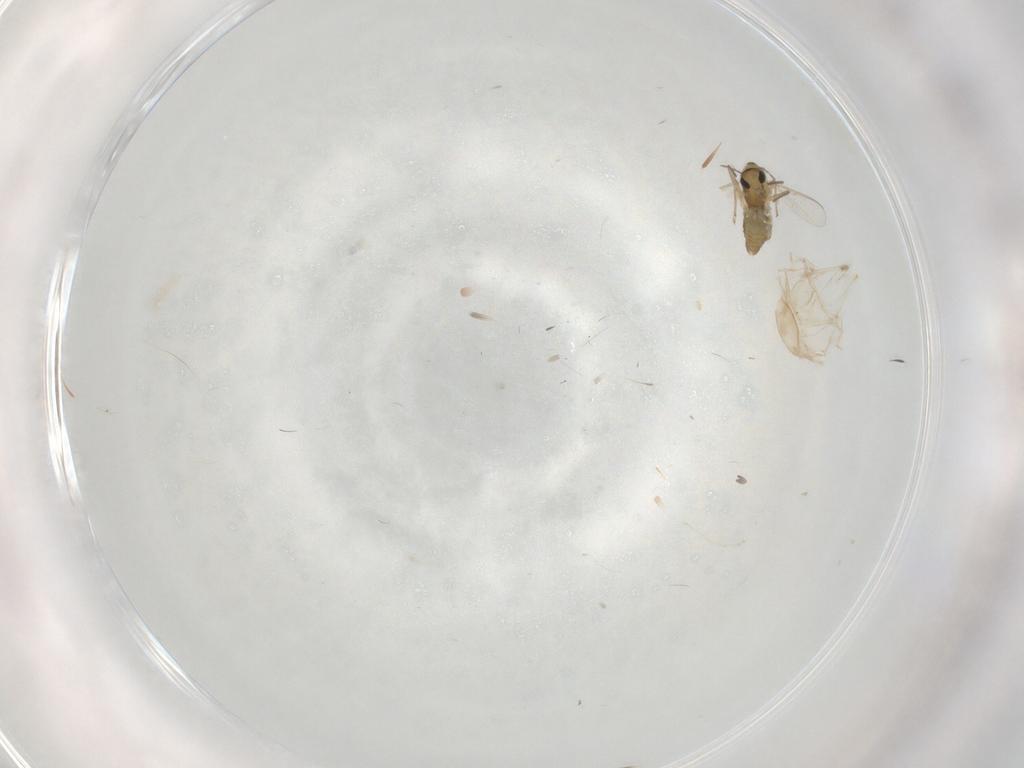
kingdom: Animalia
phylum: Arthropoda
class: Insecta
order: Diptera
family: Cecidomyiidae
